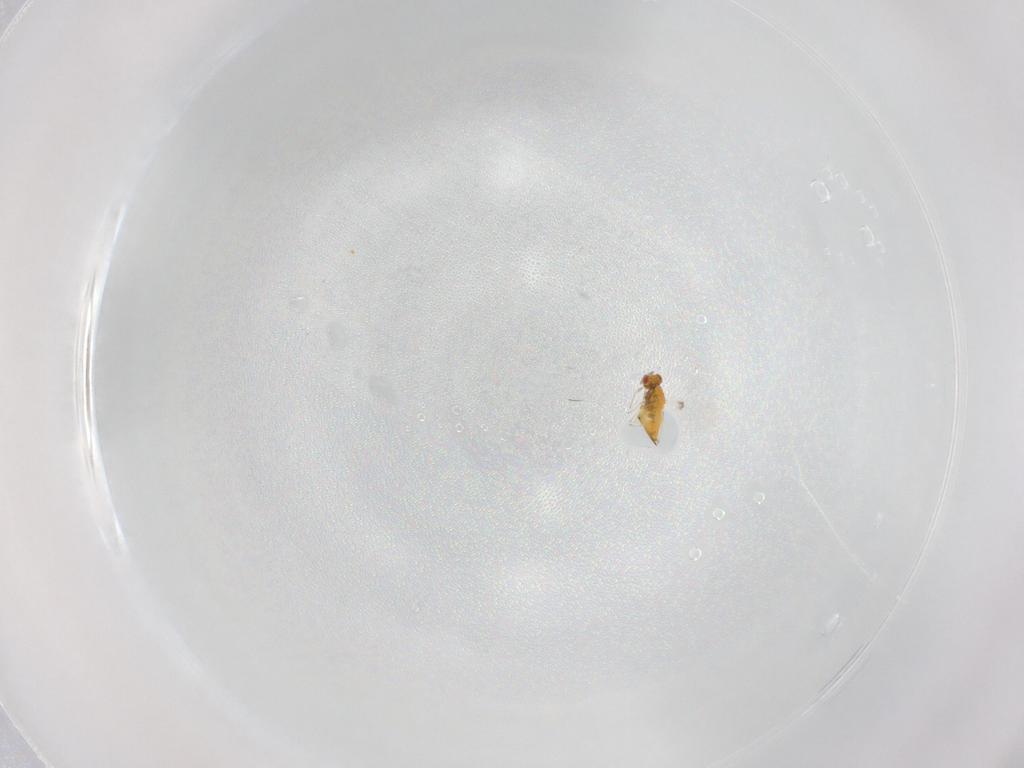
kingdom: Animalia
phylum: Arthropoda
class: Insecta
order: Hymenoptera
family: Trichogrammatidae
